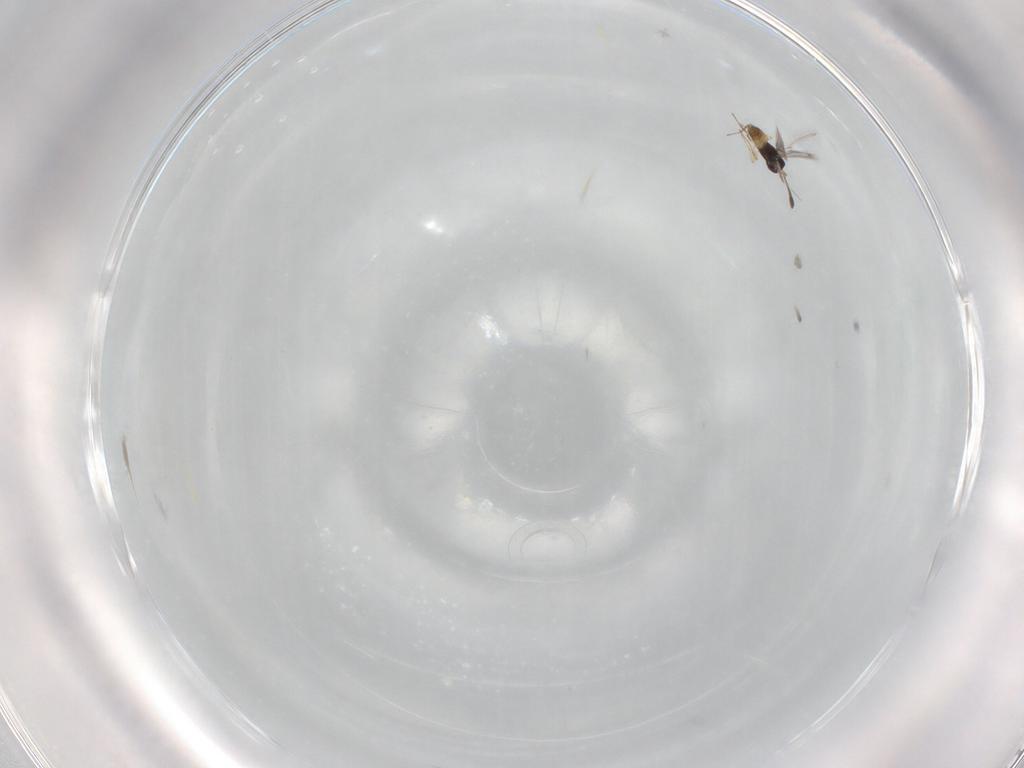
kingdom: Animalia
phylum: Arthropoda
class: Insecta
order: Hymenoptera
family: Mymaridae
